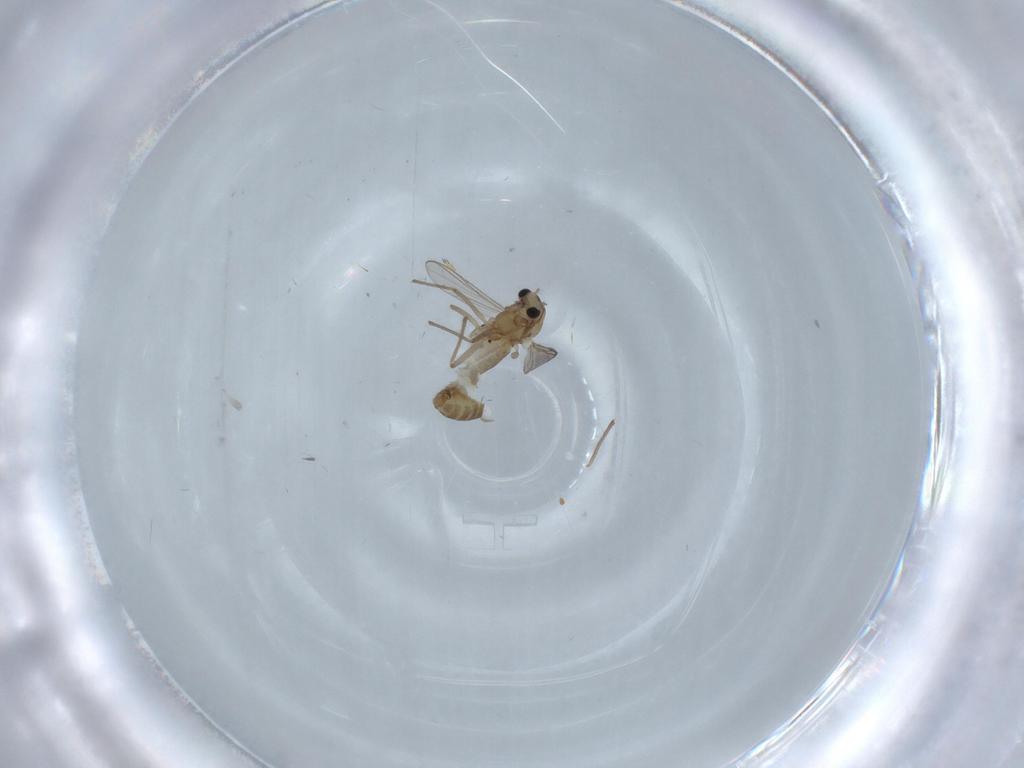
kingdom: Animalia
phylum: Arthropoda
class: Insecta
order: Diptera
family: Chironomidae
